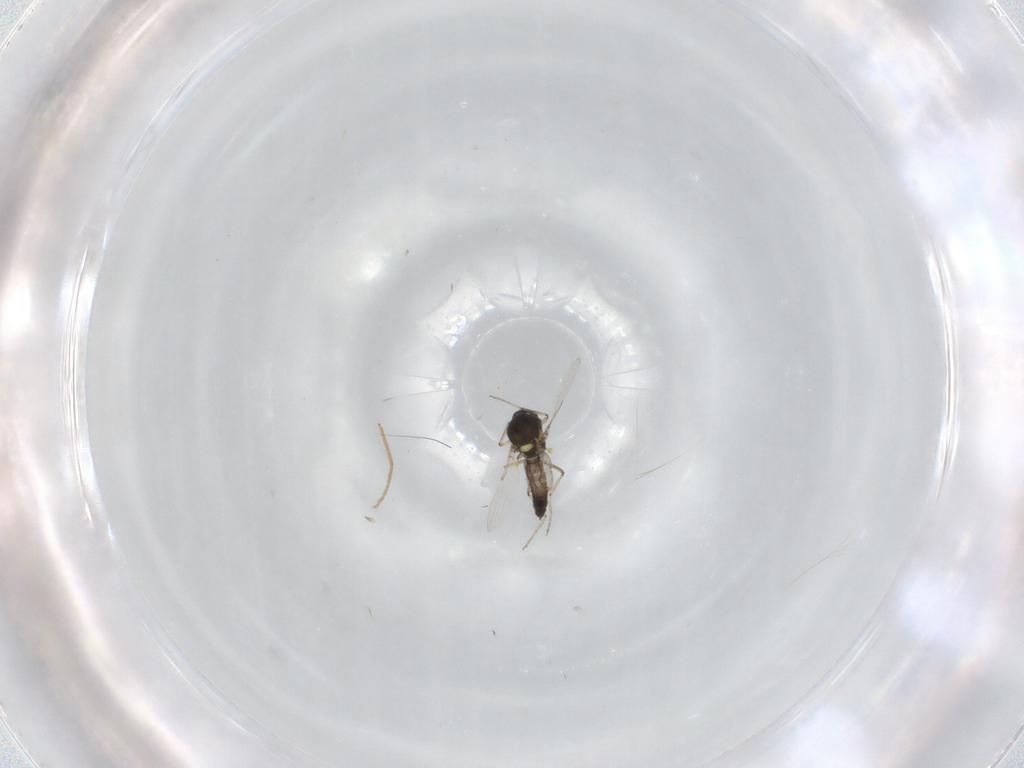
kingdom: Animalia
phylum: Arthropoda
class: Insecta
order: Diptera
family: Chironomidae
